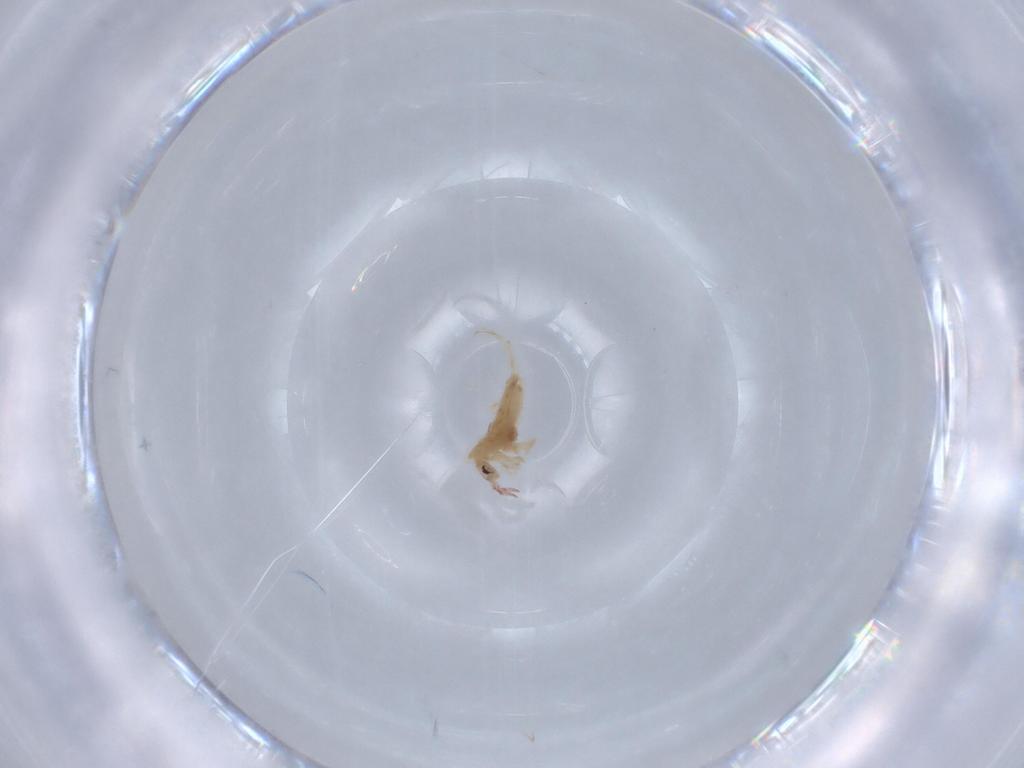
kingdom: Animalia
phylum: Arthropoda
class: Collembola
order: Entomobryomorpha
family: Entomobryidae
